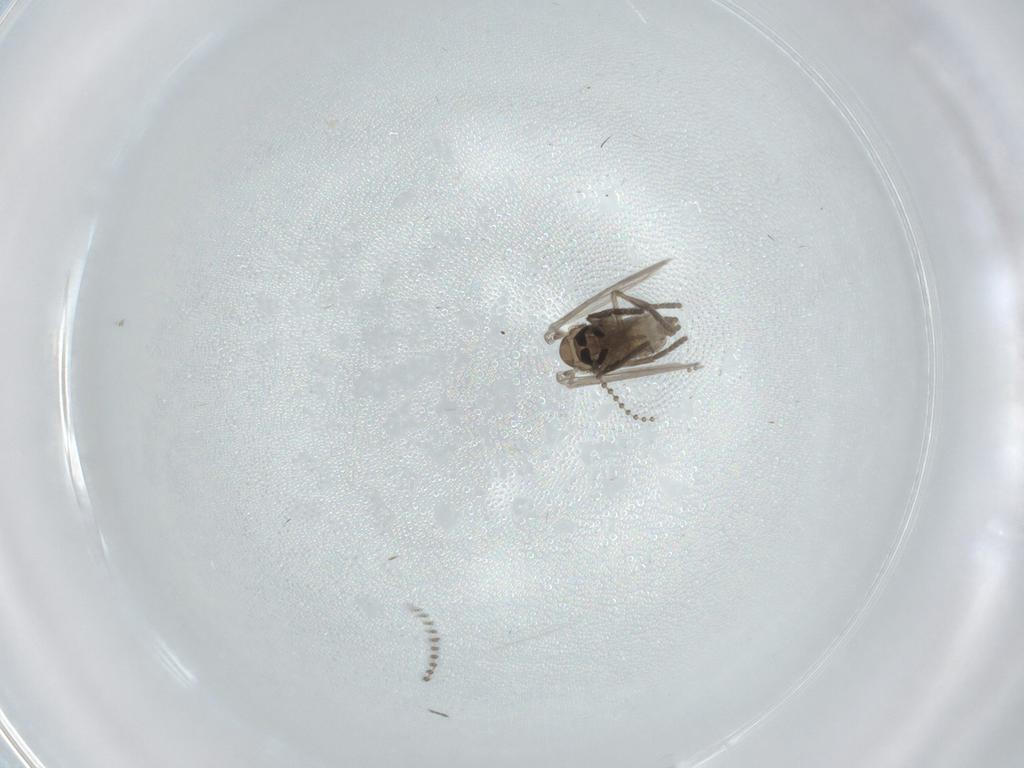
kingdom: Animalia
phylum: Arthropoda
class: Insecta
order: Diptera
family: Psychodidae
